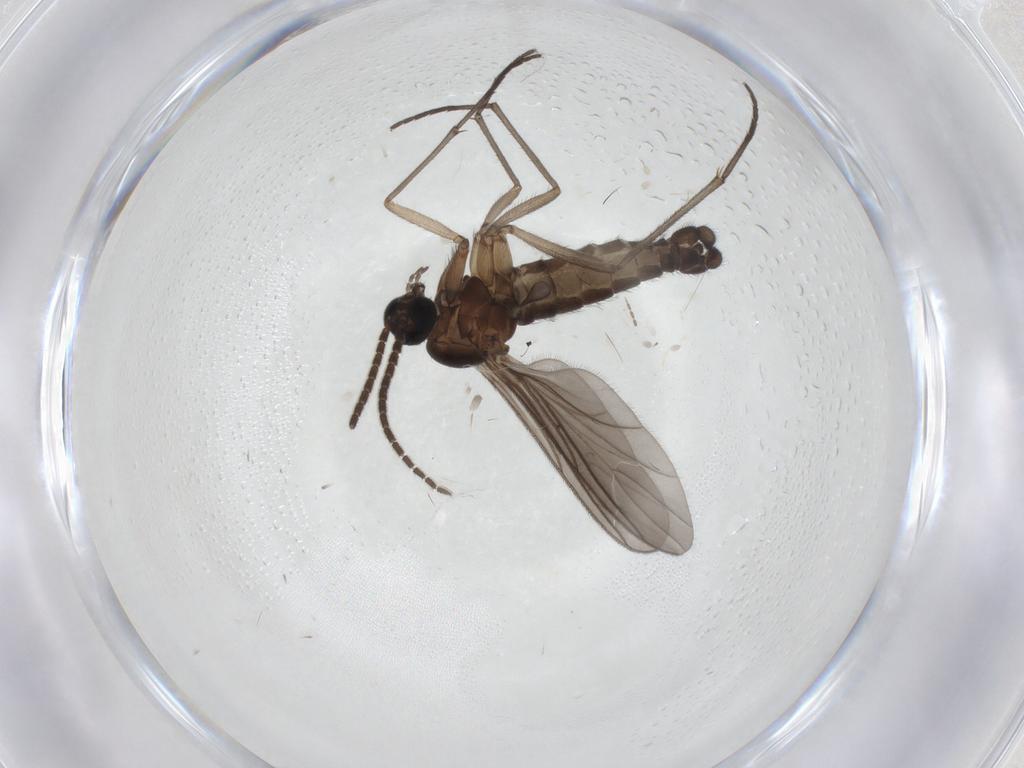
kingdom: Animalia
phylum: Arthropoda
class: Insecta
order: Diptera
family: Sciaridae
